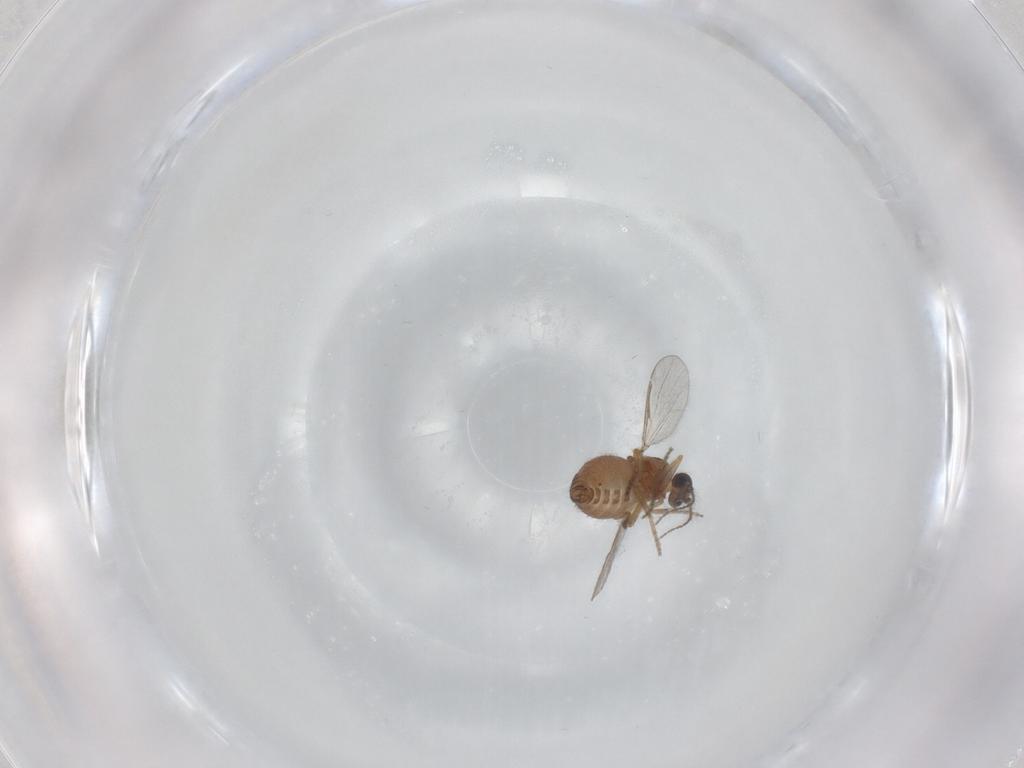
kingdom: Animalia
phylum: Arthropoda
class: Insecta
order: Diptera
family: Ceratopogonidae
